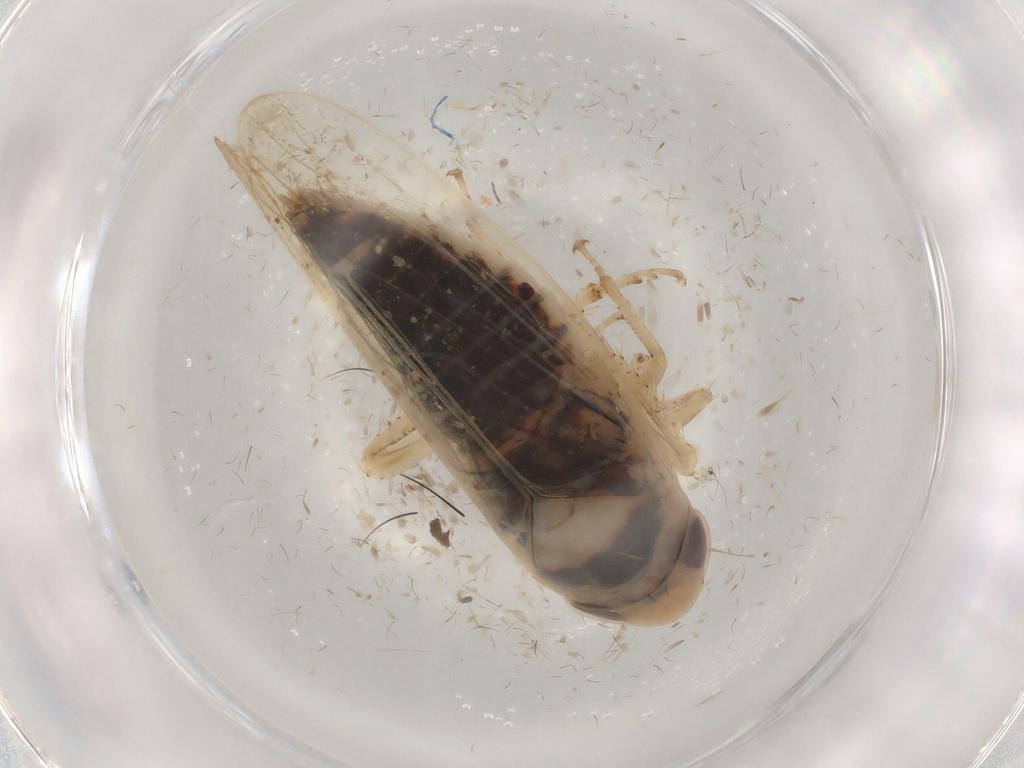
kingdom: Animalia
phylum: Arthropoda
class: Insecta
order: Hemiptera
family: Cicadellidae
